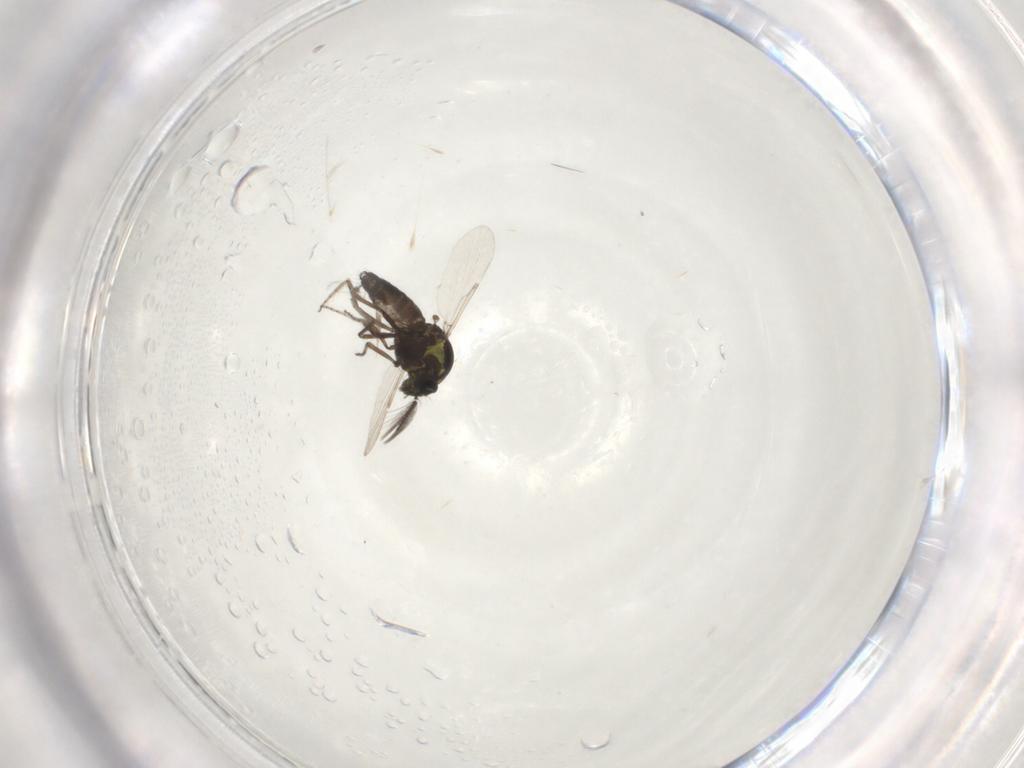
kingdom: Animalia
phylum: Arthropoda
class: Insecta
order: Diptera
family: Ceratopogonidae
